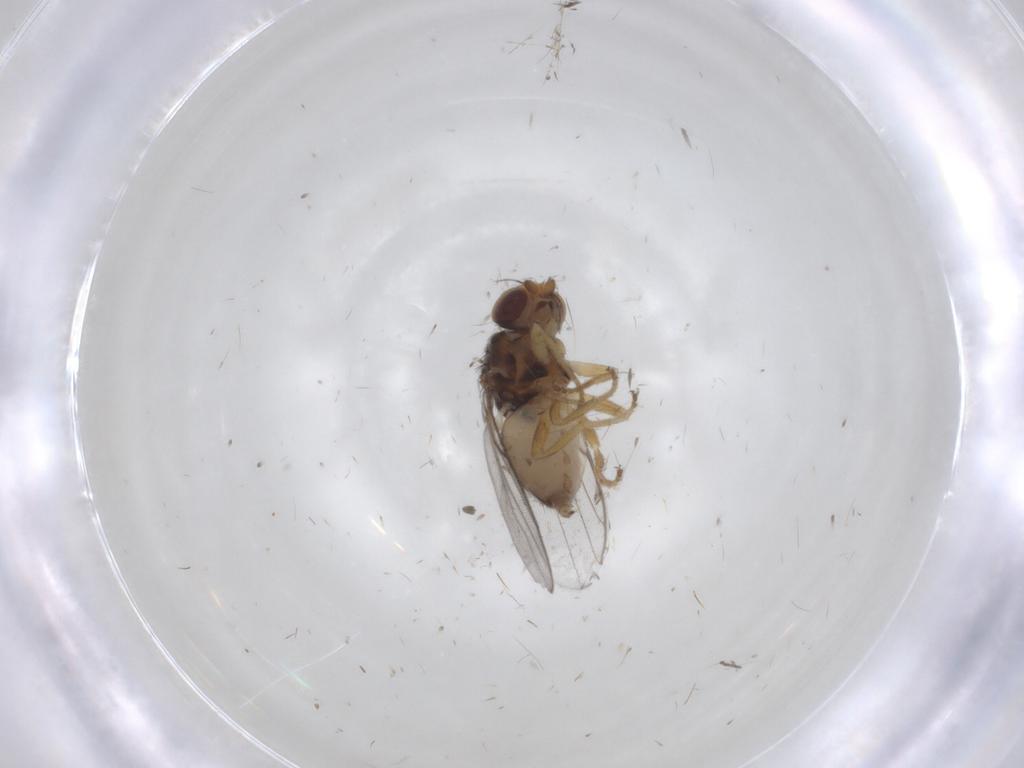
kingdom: Animalia
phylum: Arthropoda
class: Insecta
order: Diptera
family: Chloropidae
